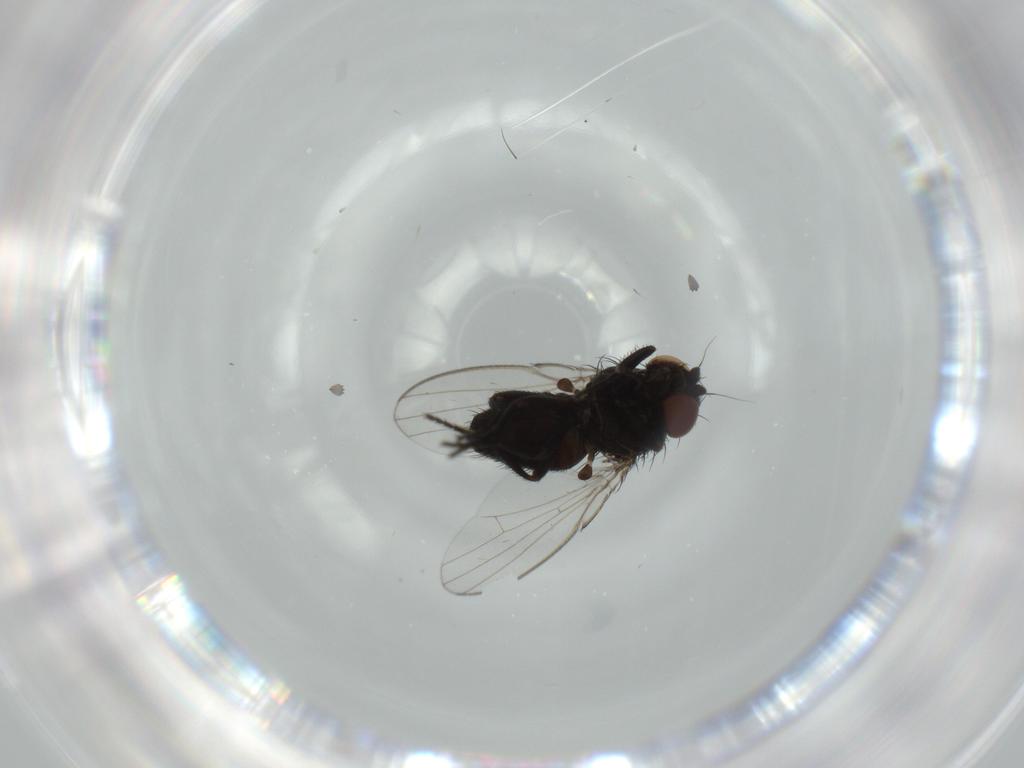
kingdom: Animalia
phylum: Arthropoda
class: Insecta
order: Diptera
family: Milichiidae
